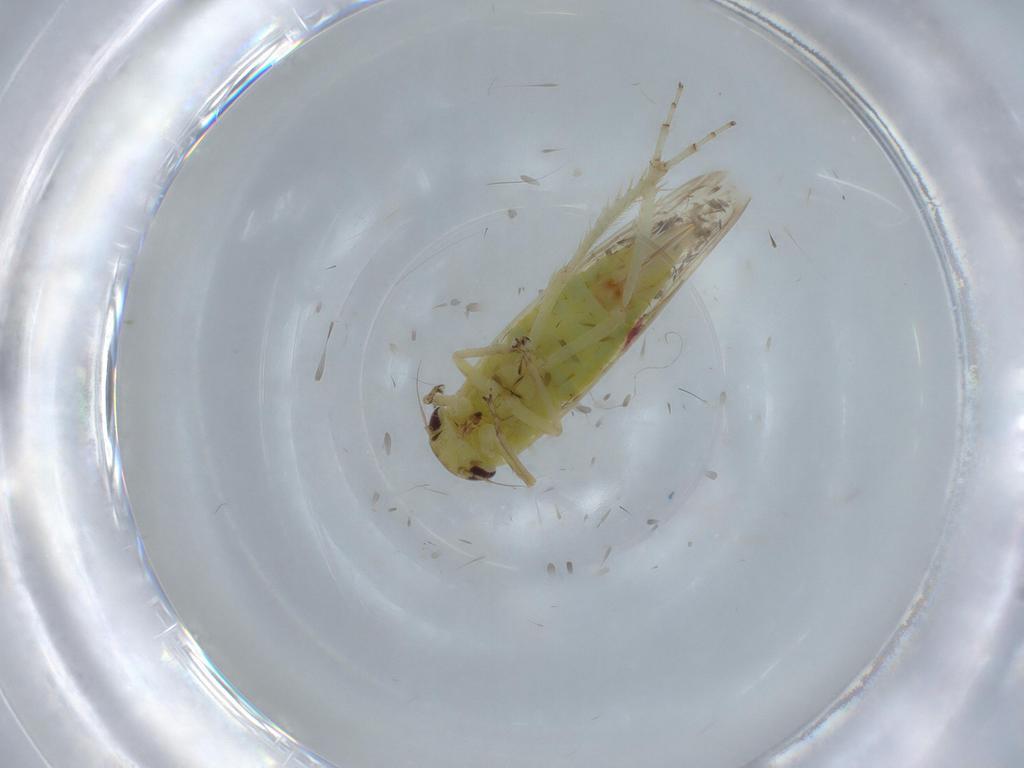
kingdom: Animalia
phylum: Arthropoda
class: Insecta
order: Hemiptera
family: Cicadellidae
